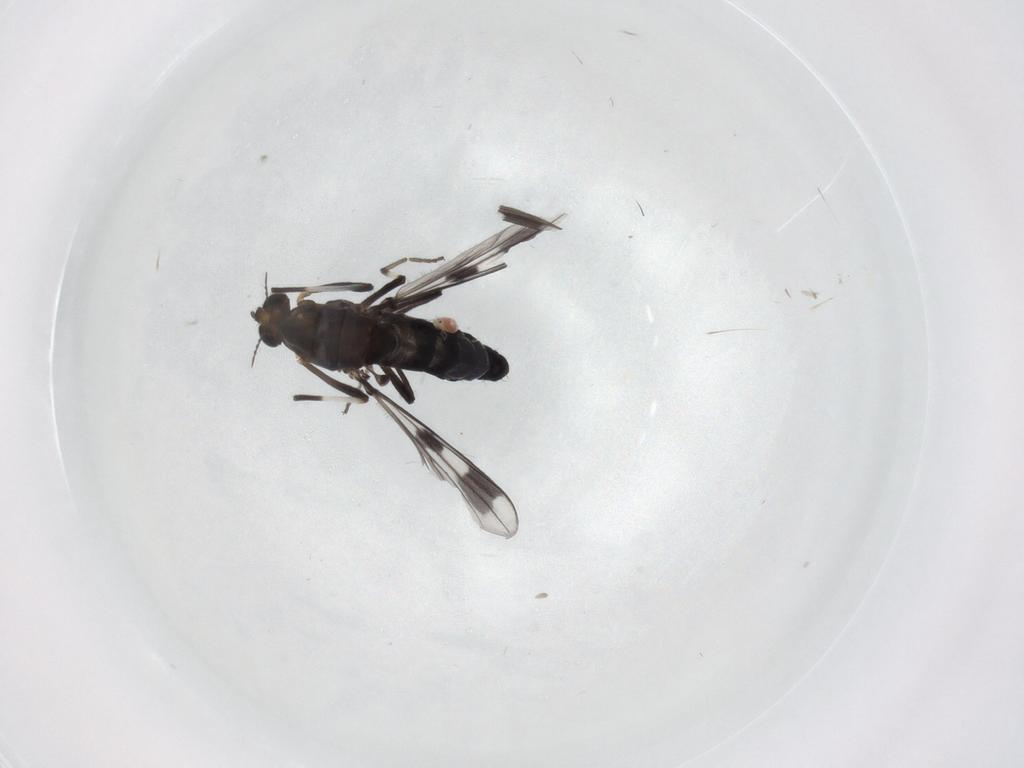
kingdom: Animalia
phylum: Arthropoda
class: Insecta
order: Diptera
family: Chironomidae
